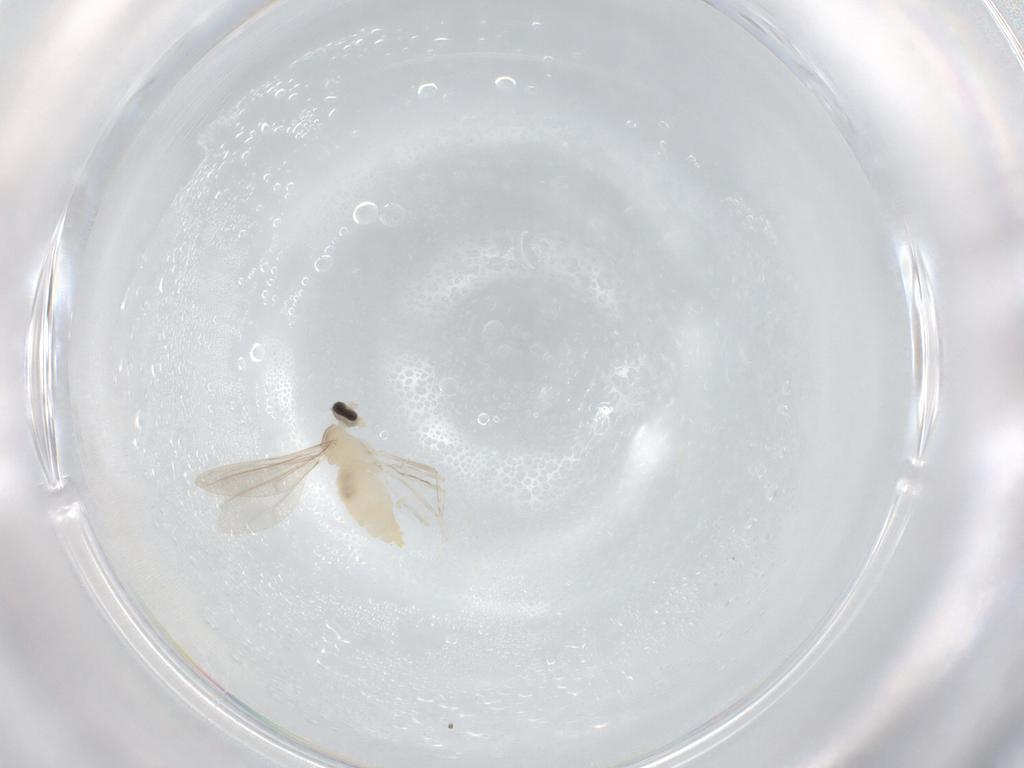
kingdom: Animalia
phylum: Arthropoda
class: Insecta
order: Diptera
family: Cecidomyiidae
